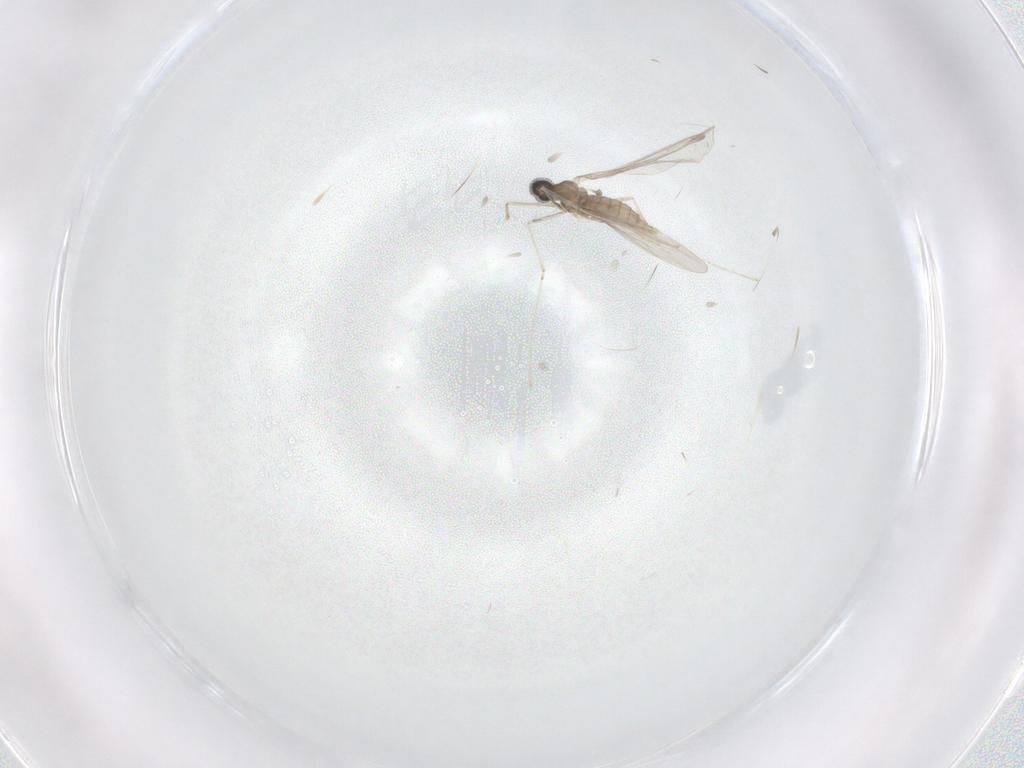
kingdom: Animalia
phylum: Arthropoda
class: Insecta
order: Diptera
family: Cecidomyiidae
